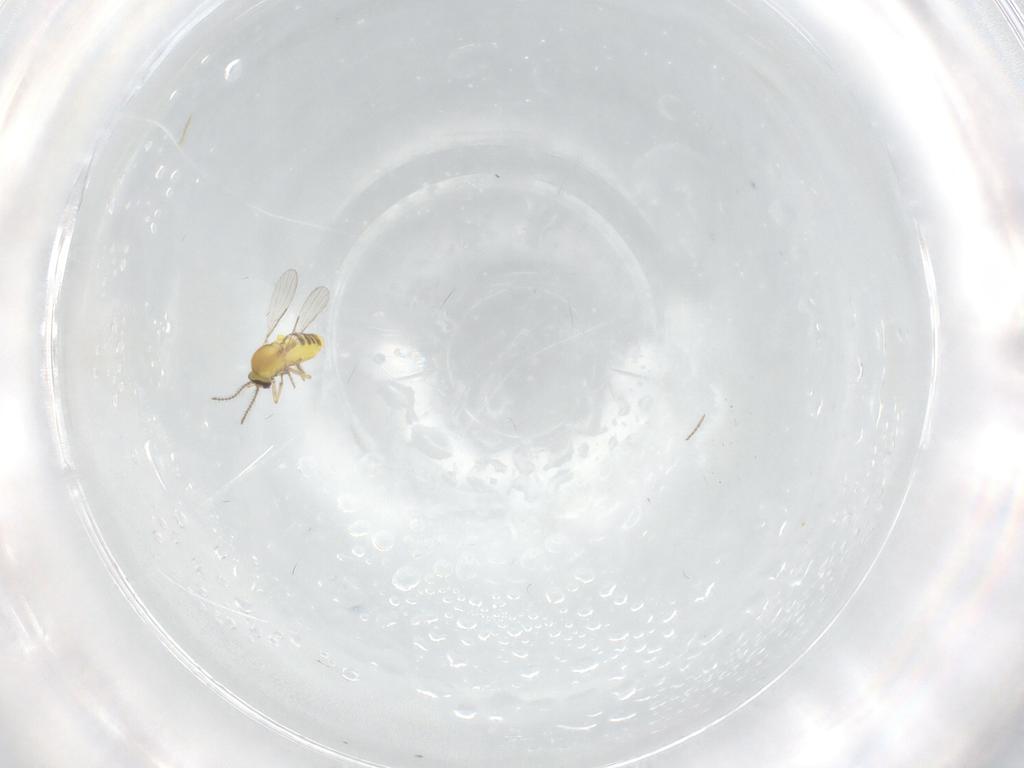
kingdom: Animalia
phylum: Arthropoda
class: Insecta
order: Diptera
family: Ceratopogonidae
